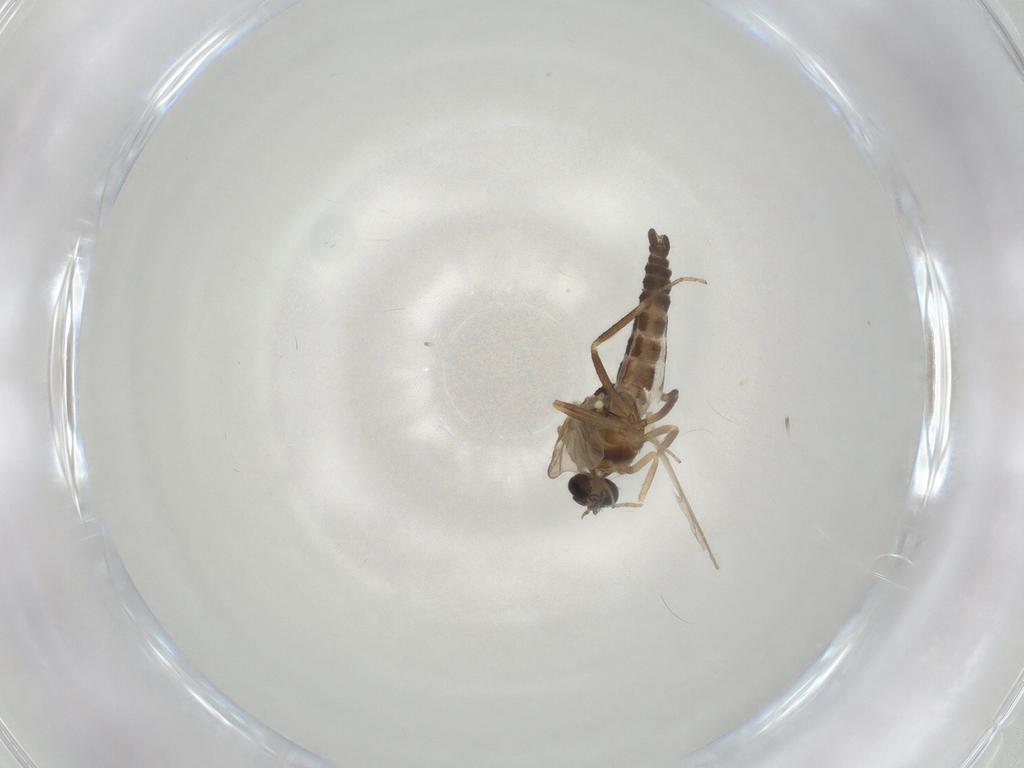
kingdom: Animalia
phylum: Arthropoda
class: Insecta
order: Diptera
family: Ceratopogonidae
